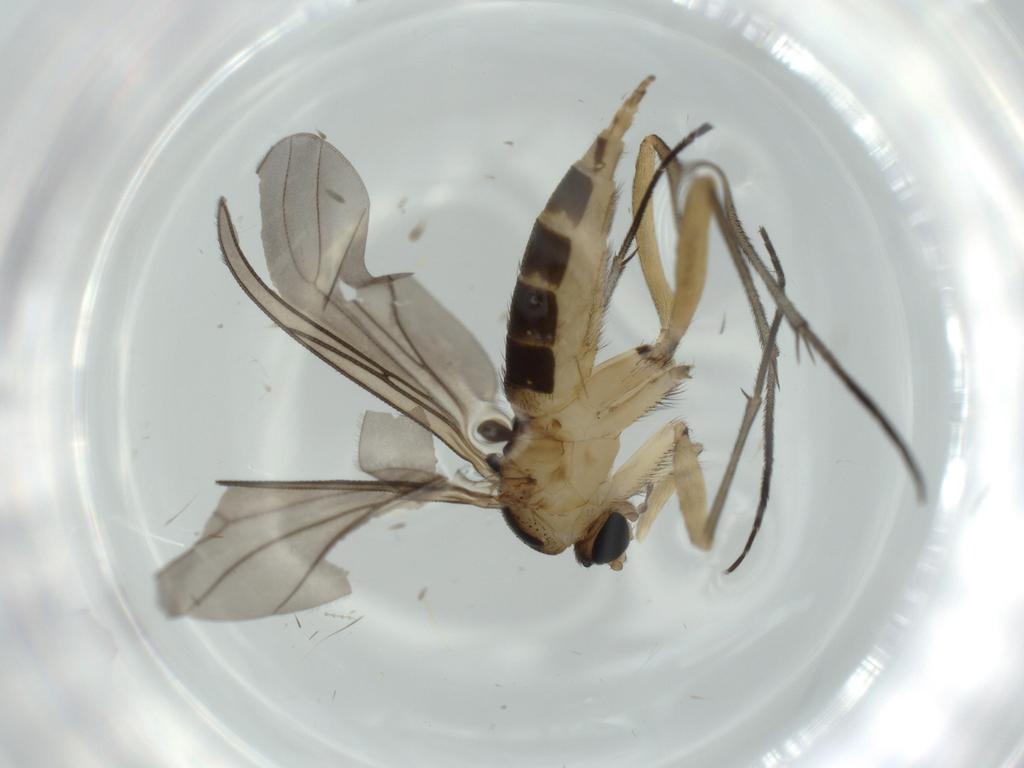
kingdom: Animalia
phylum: Arthropoda
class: Insecta
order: Diptera
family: Sciaridae
